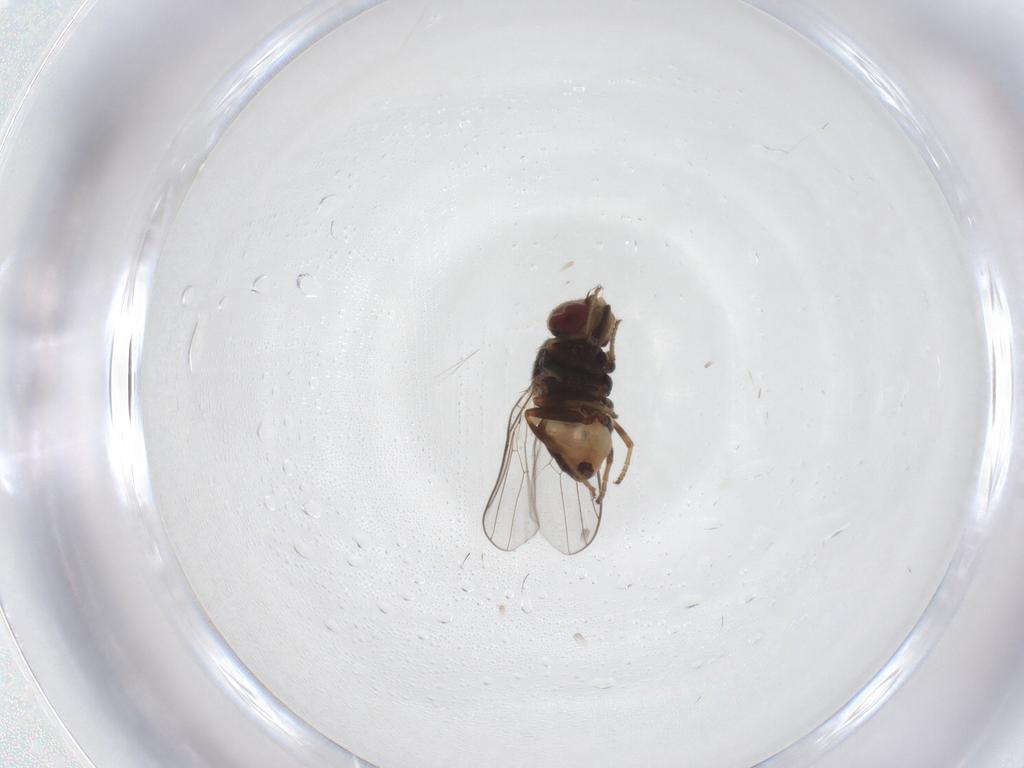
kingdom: Animalia
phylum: Arthropoda
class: Insecta
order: Diptera
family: Chloropidae
